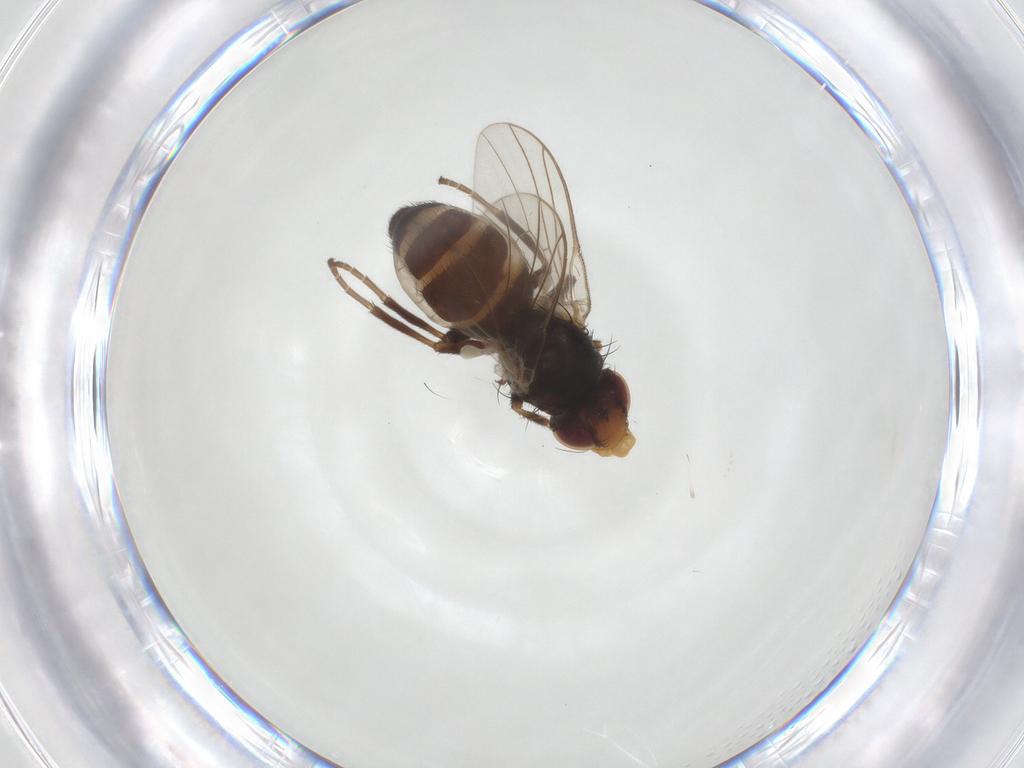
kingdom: Animalia
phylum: Arthropoda
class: Insecta
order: Diptera
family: Agromyzidae
